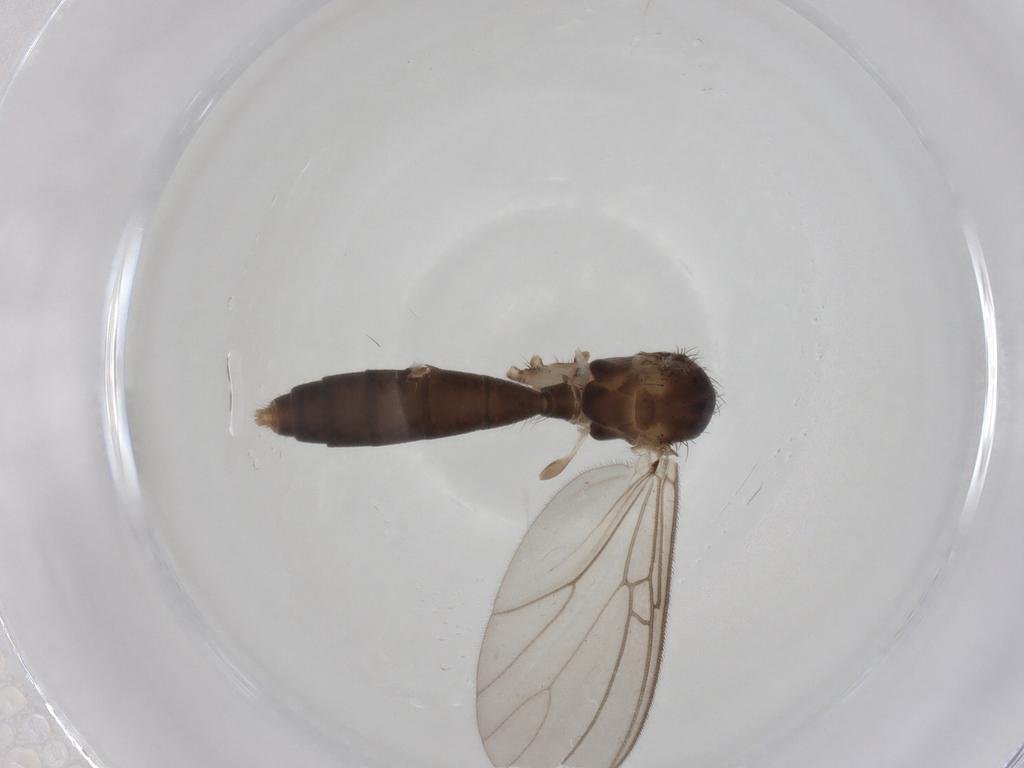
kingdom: Animalia
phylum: Arthropoda
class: Insecta
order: Diptera
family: Mycetophilidae
